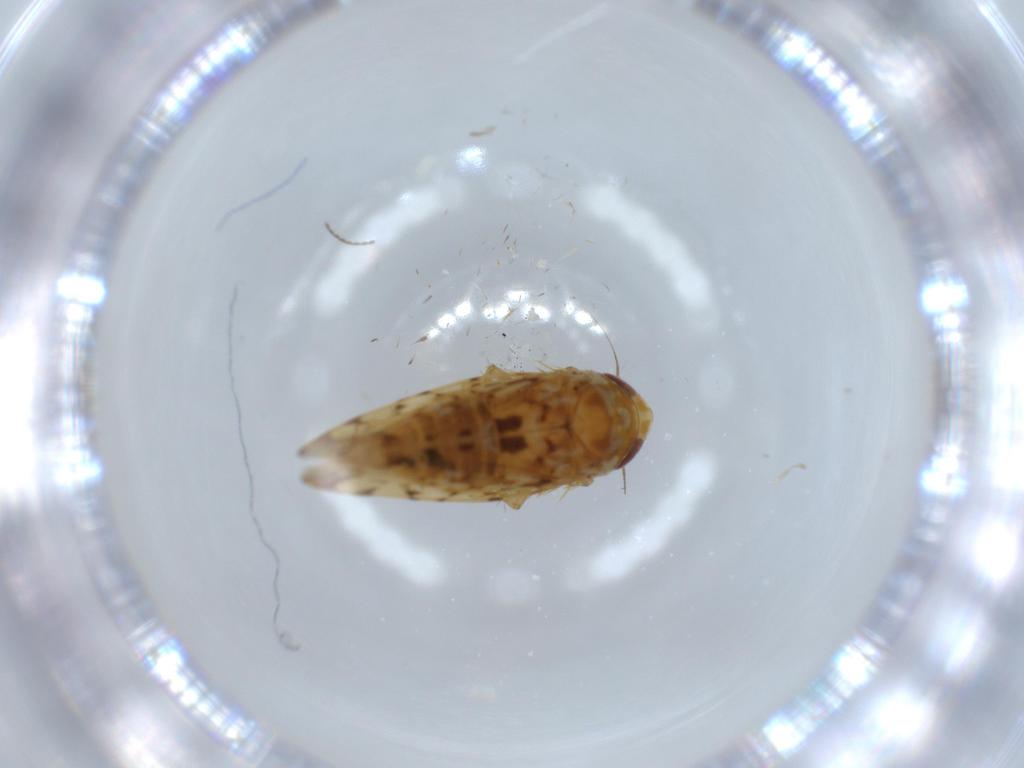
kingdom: Animalia
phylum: Arthropoda
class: Insecta
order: Hemiptera
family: Cicadellidae
